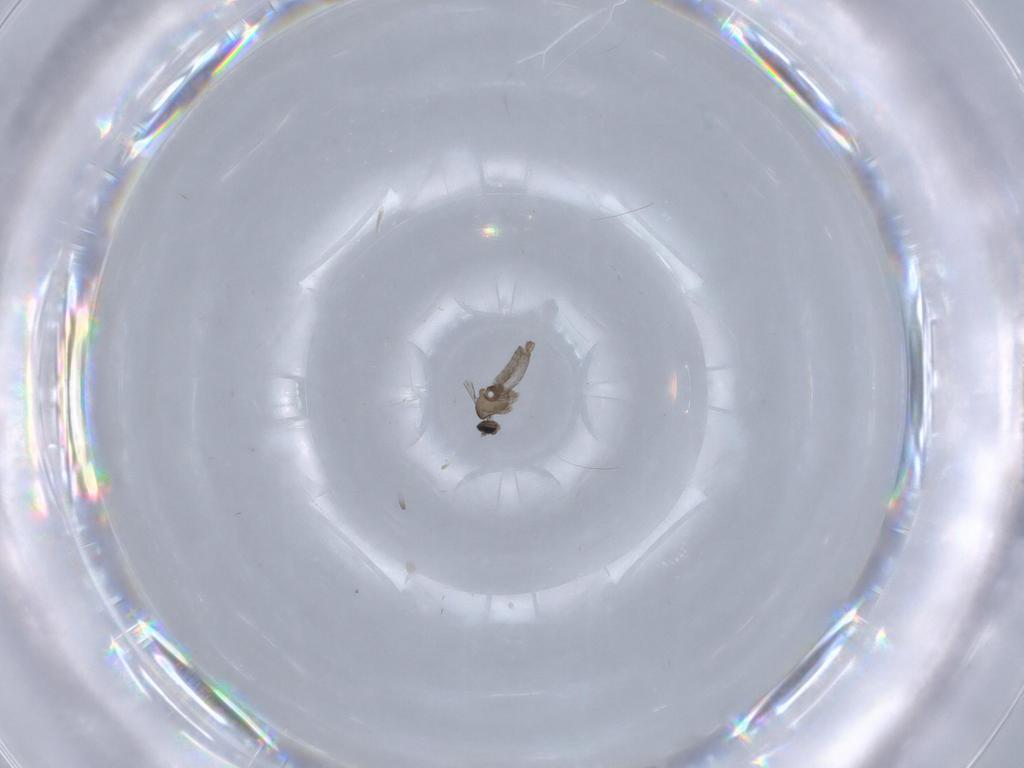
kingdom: Animalia
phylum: Arthropoda
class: Insecta
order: Diptera
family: Cecidomyiidae
